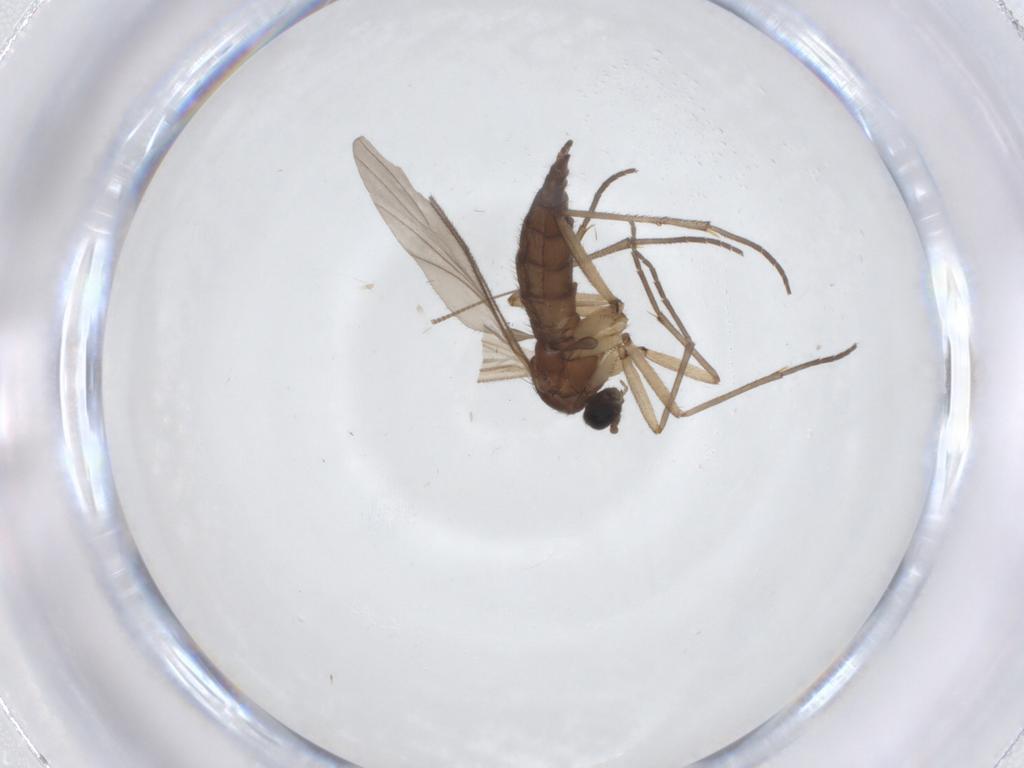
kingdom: Animalia
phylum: Arthropoda
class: Insecta
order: Diptera
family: Sciaridae
